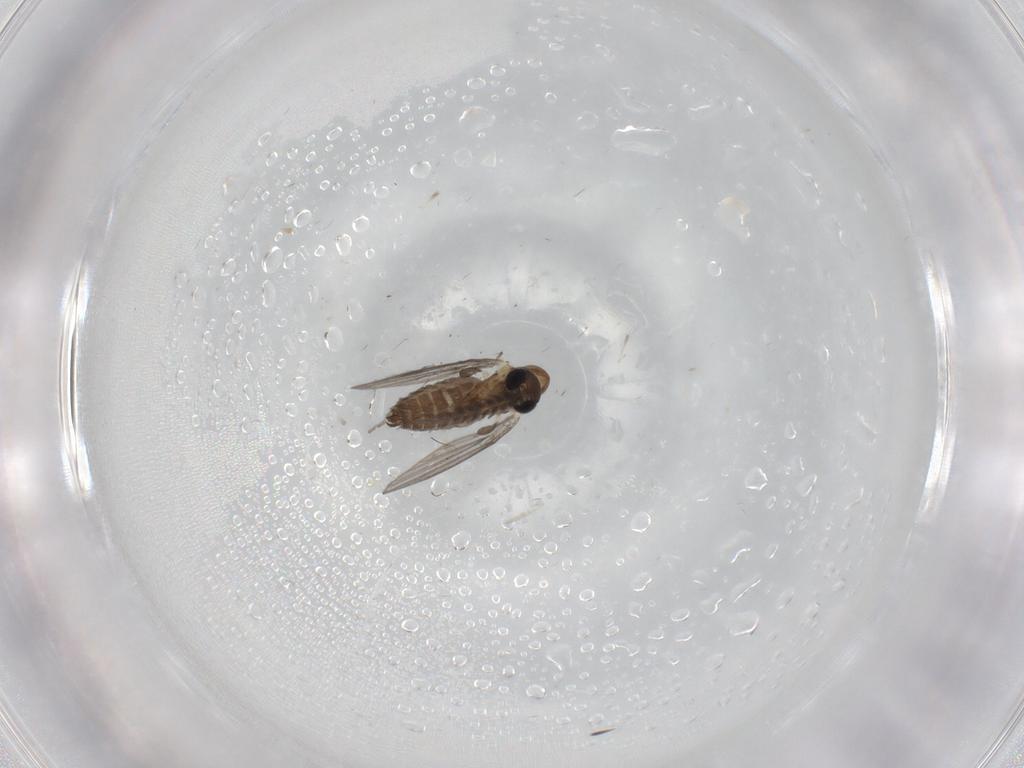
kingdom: Animalia
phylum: Arthropoda
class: Insecta
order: Diptera
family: Psychodidae
